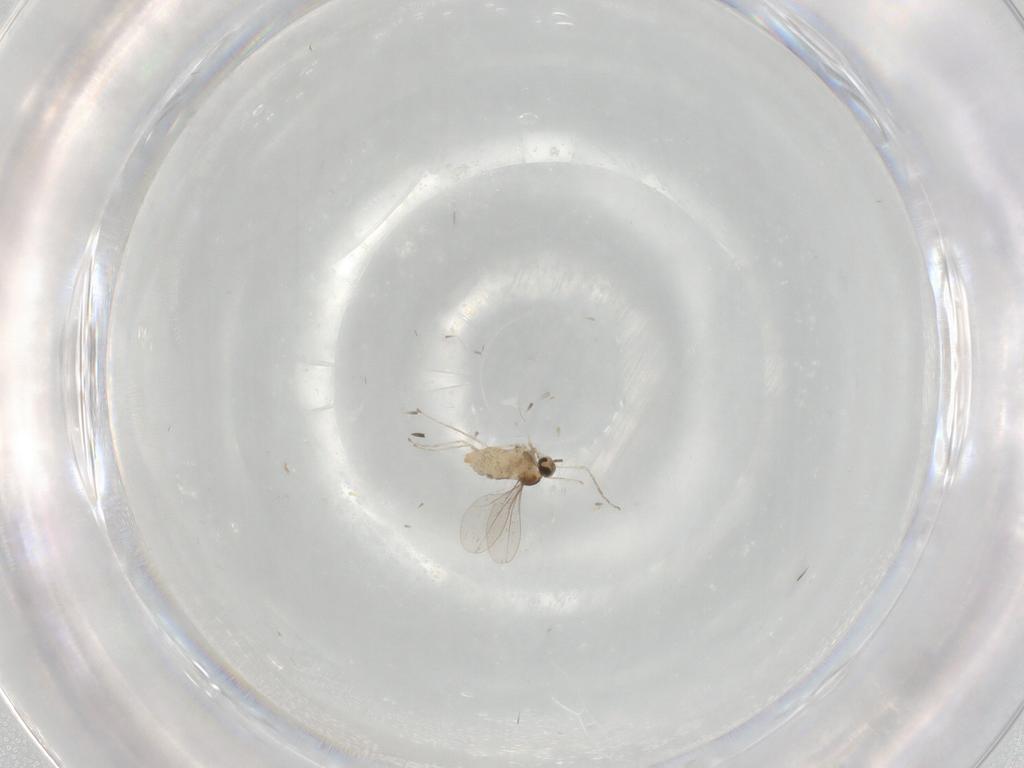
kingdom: Animalia
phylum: Arthropoda
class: Insecta
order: Diptera
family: Cecidomyiidae
